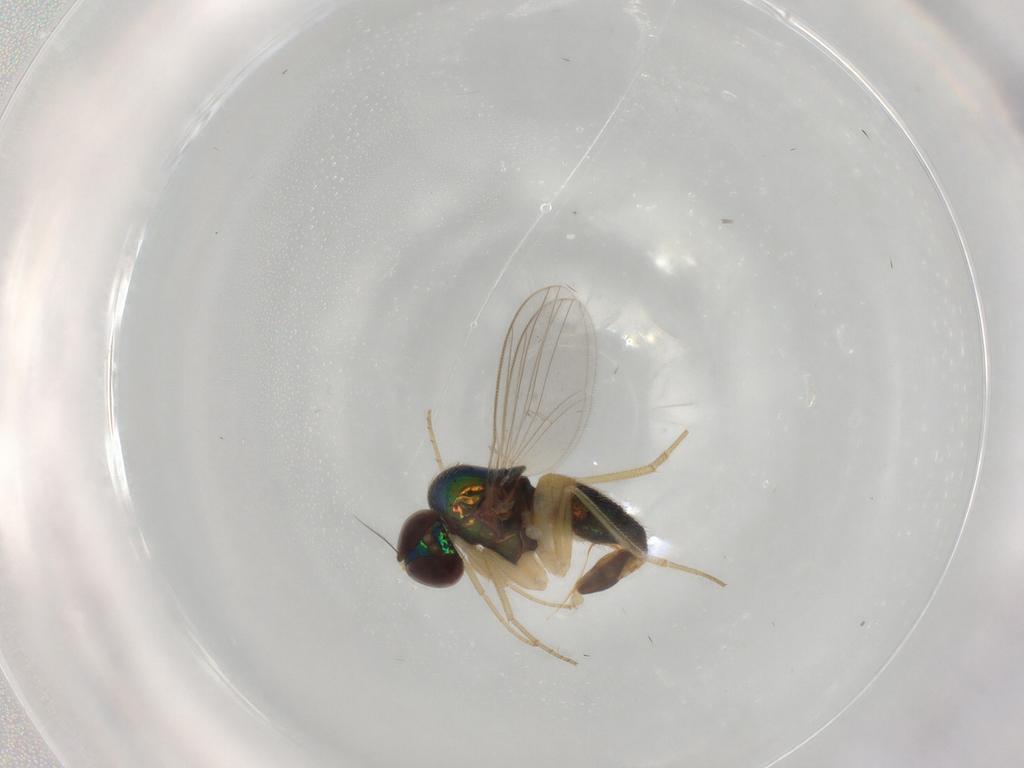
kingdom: Animalia
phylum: Arthropoda
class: Insecta
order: Diptera
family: Dolichopodidae
